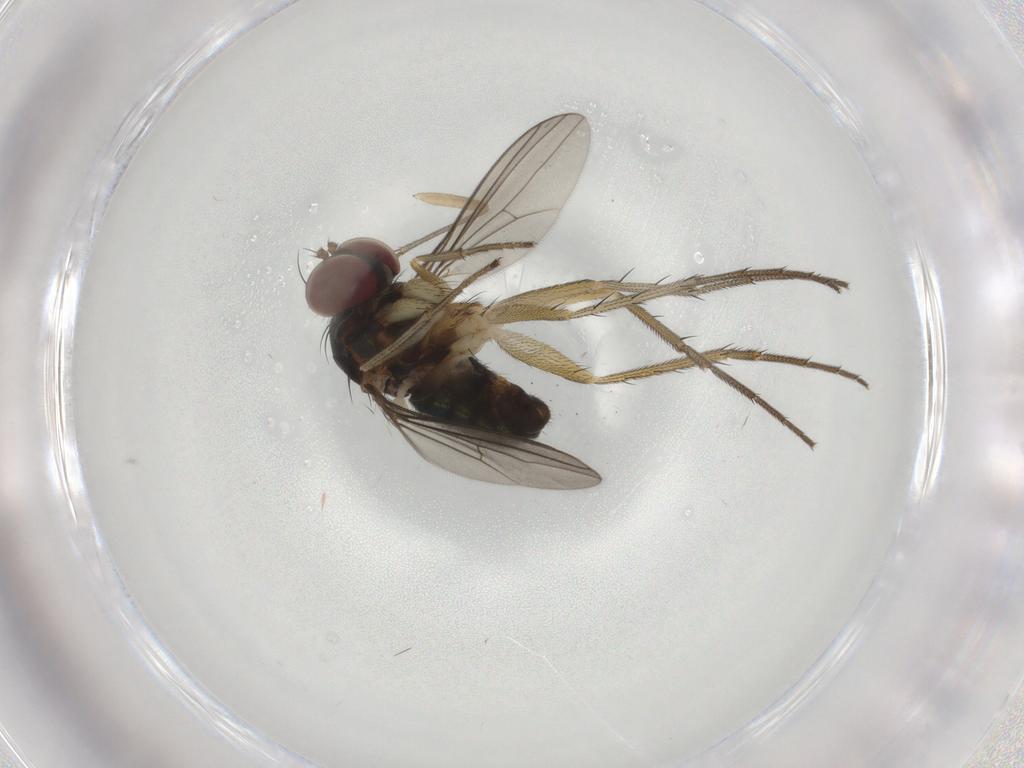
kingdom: Animalia
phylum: Arthropoda
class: Insecta
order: Diptera
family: Dolichopodidae
